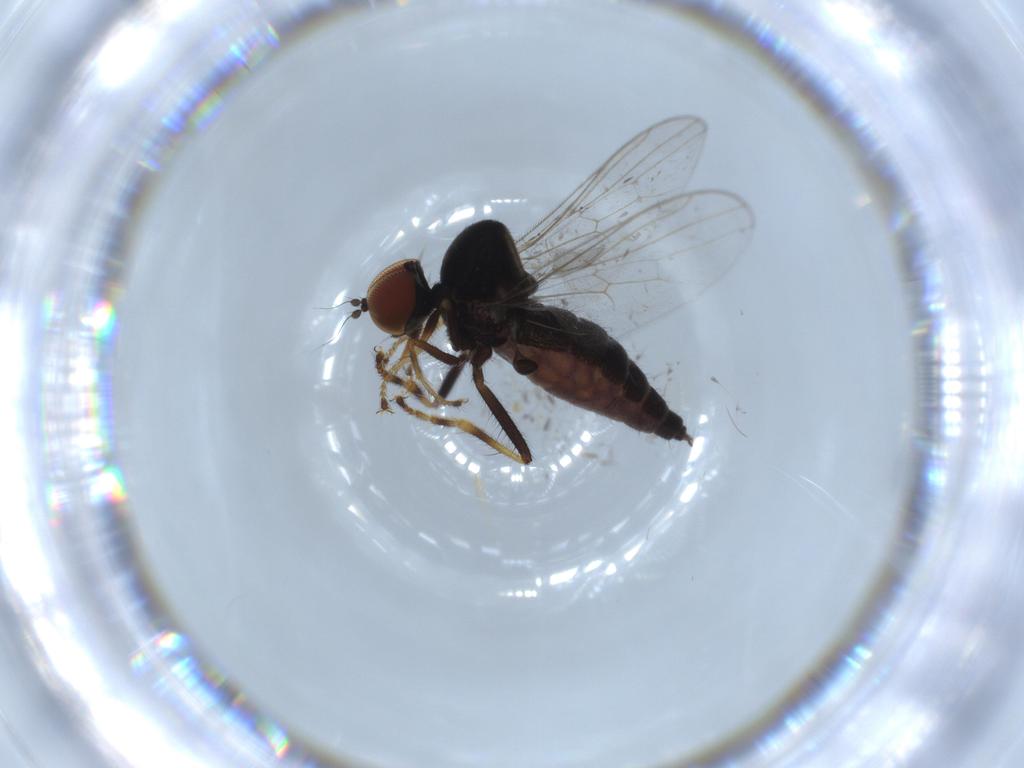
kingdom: Animalia
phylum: Arthropoda
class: Insecta
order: Diptera
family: Hybotidae
